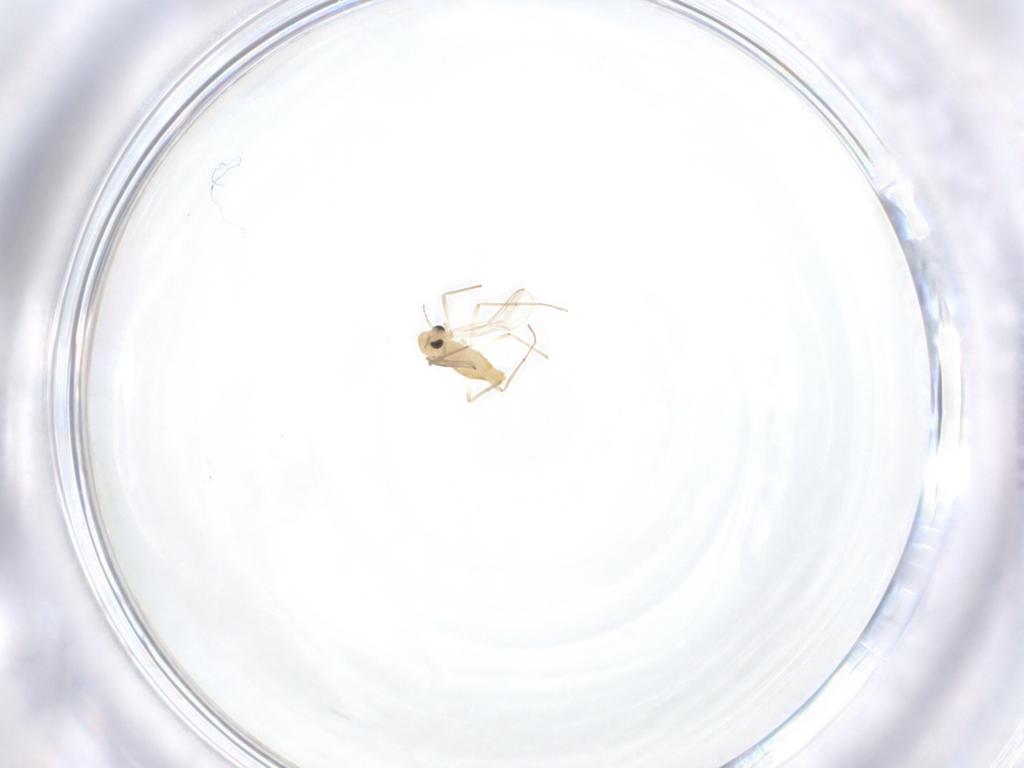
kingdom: Animalia
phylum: Arthropoda
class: Insecta
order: Diptera
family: Chironomidae
